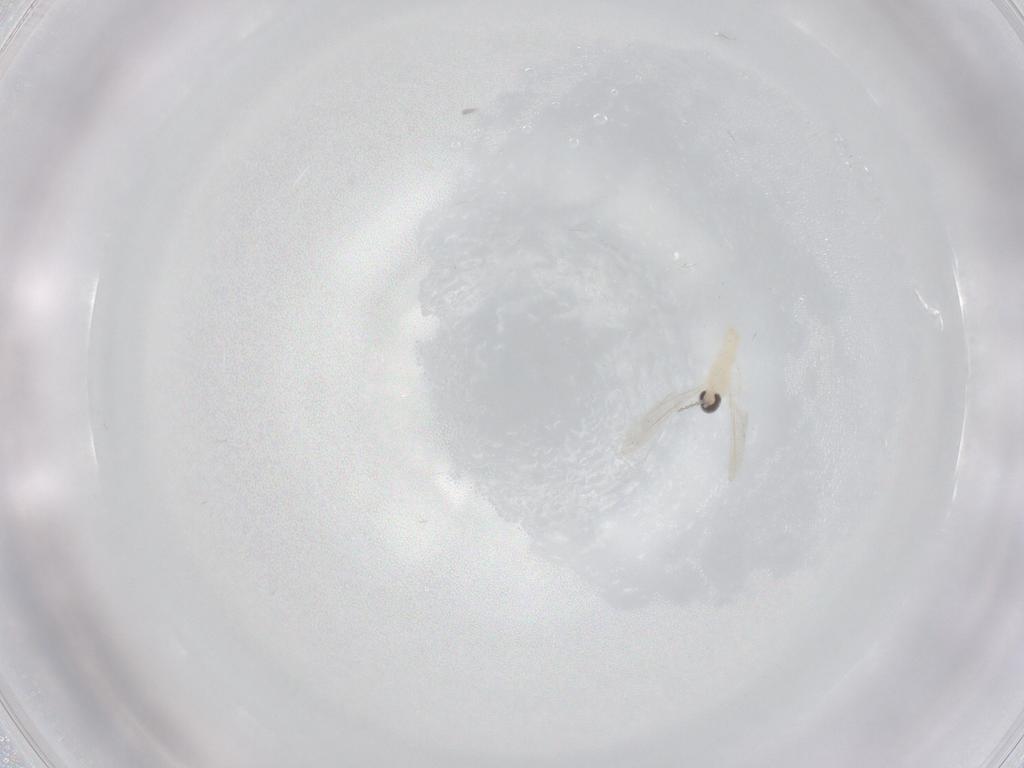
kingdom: Animalia
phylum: Arthropoda
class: Insecta
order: Diptera
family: Cecidomyiidae
